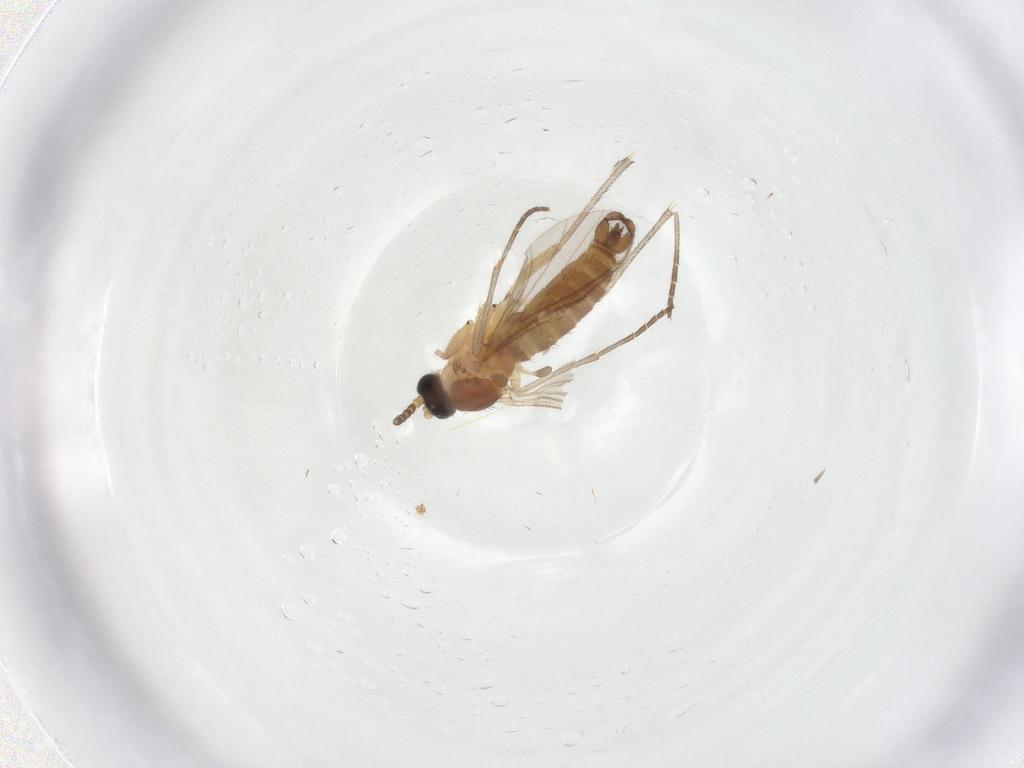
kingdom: Animalia
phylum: Arthropoda
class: Insecta
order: Diptera
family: Sciaridae
